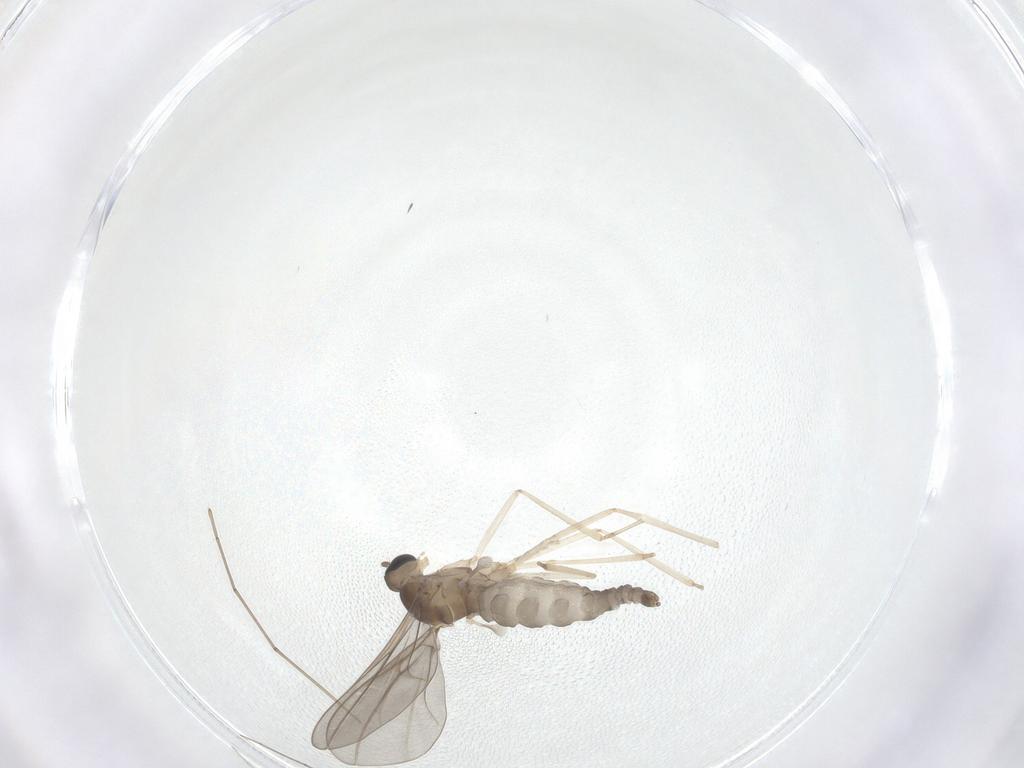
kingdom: Animalia
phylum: Arthropoda
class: Insecta
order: Diptera
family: Cecidomyiidae
